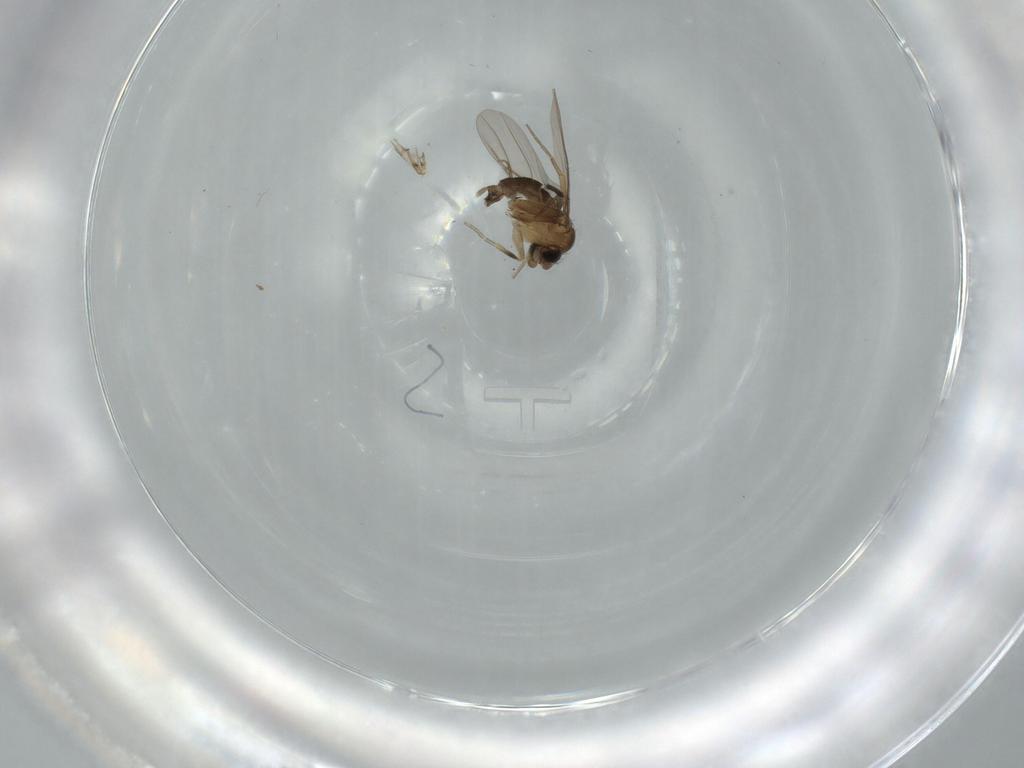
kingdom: Animalia
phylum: Arthropoda
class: Insecta
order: Diptera
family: Phoridae
